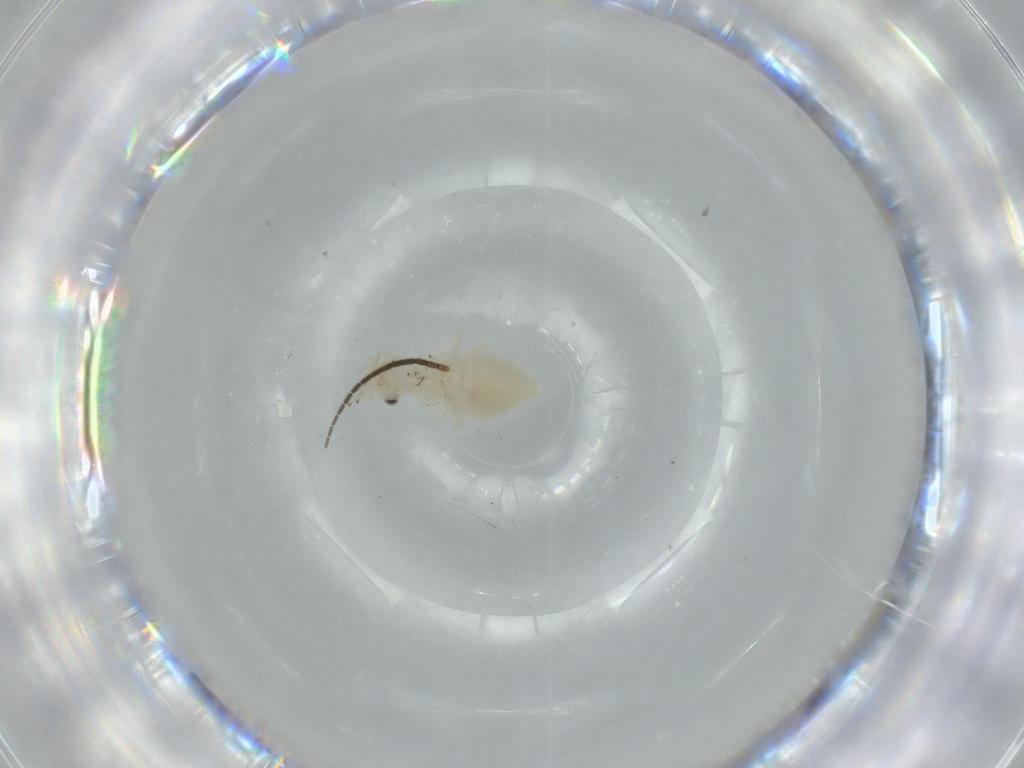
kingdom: Animalia
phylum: Arthropoda
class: Insecta
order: Psocodea
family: Caeciliusidae
